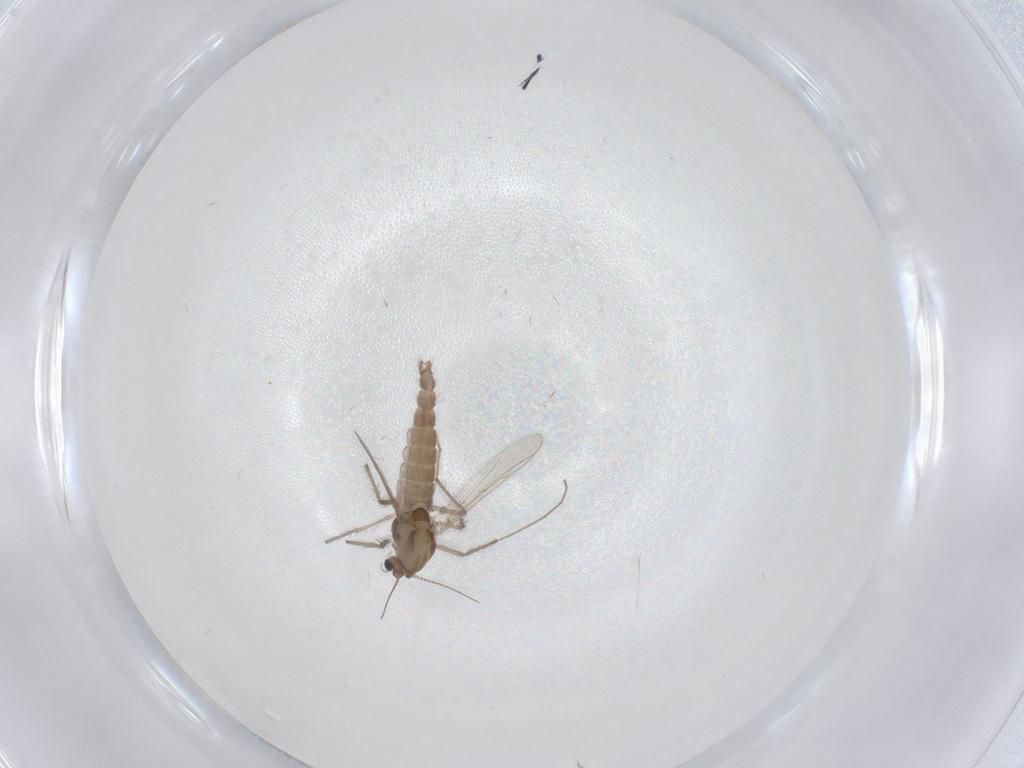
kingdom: Animalia
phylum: Arthropoda
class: Insecta
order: Diptera
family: Chironomidae
